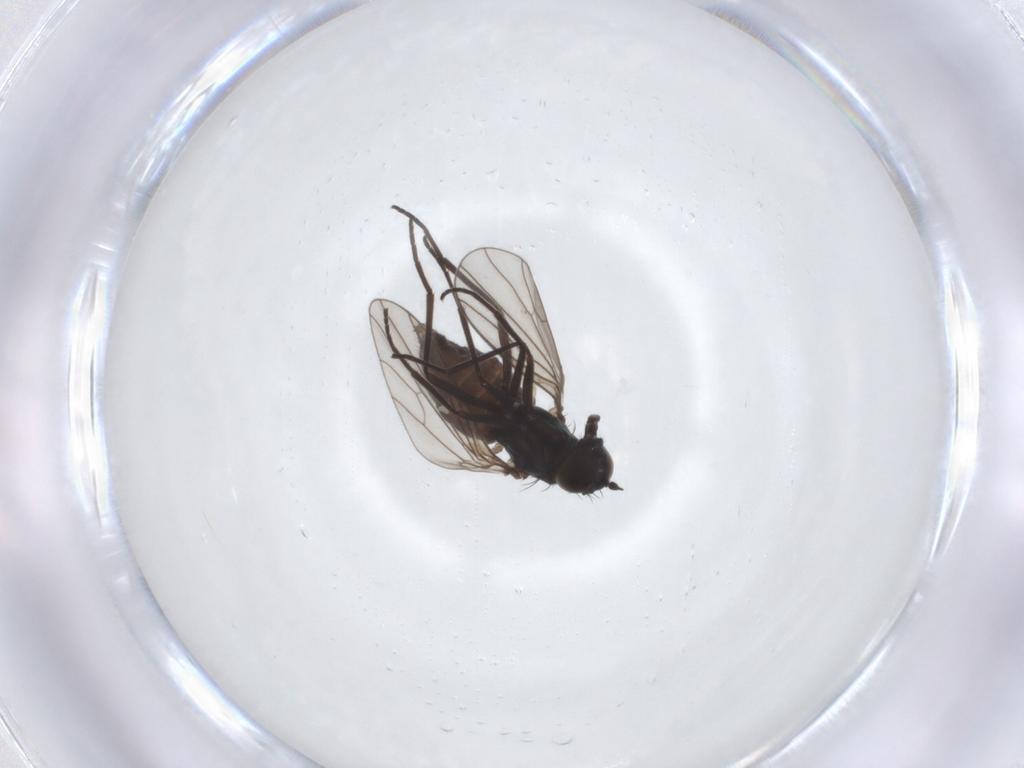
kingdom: Animalia
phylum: Arthropoda
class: Insecta
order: Diptera
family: Dolichopodidae
